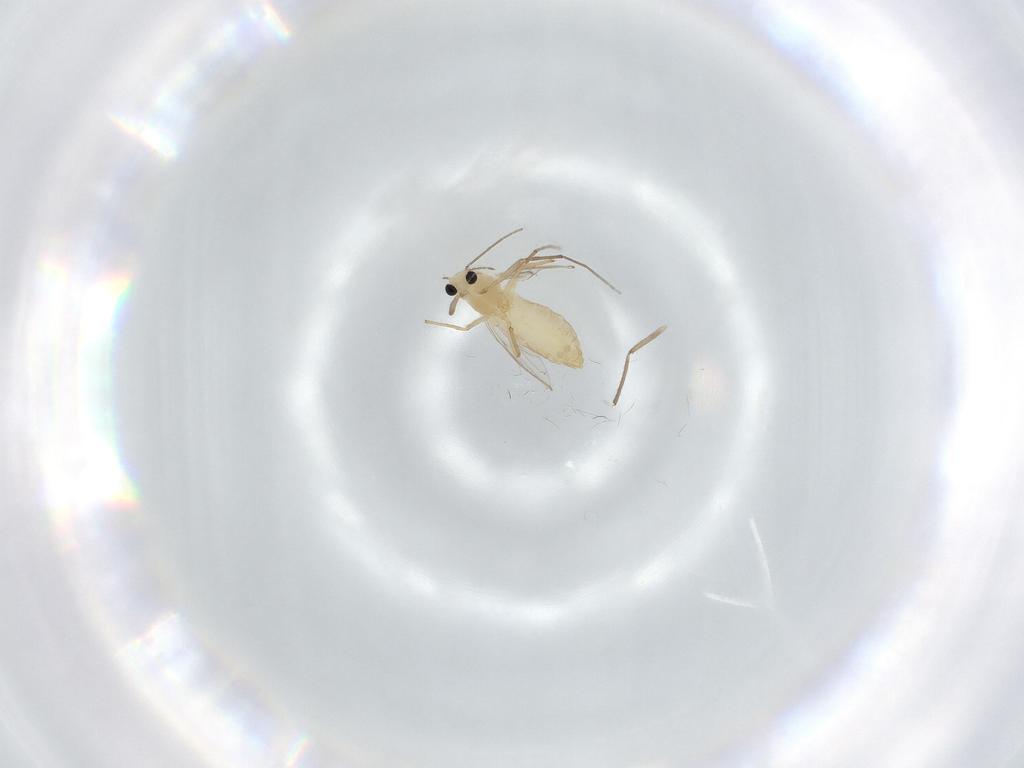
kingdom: Animalia
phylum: Arthropoda
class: Insecta
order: Diptera
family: Chironomidae
